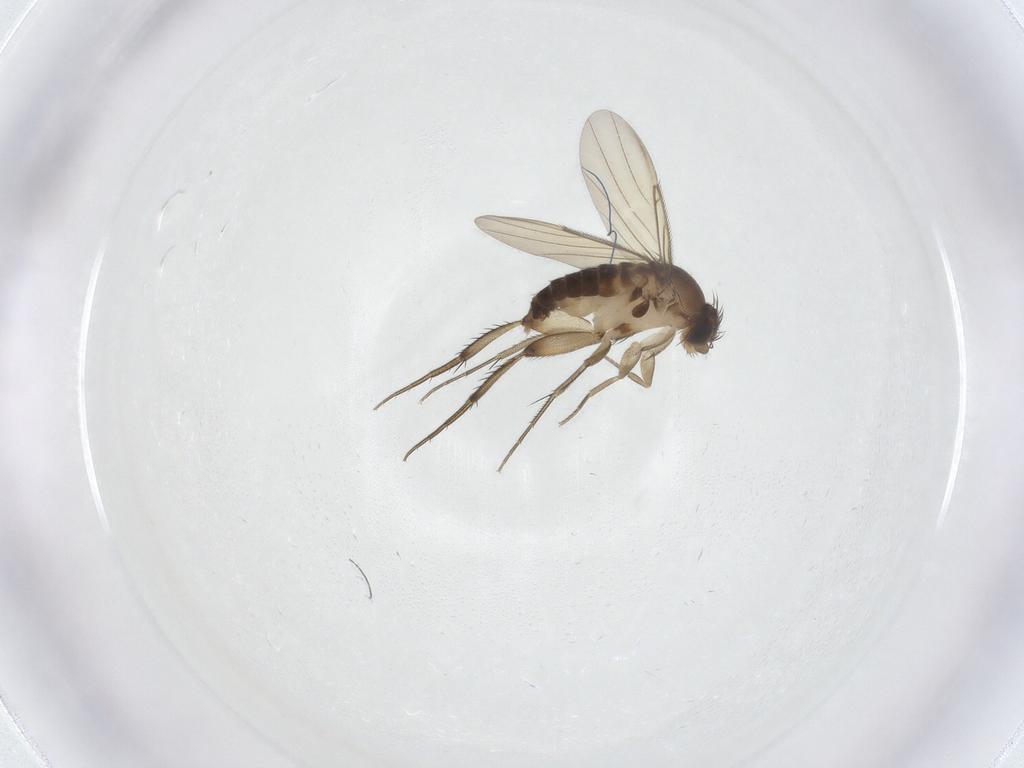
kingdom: Animalia
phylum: Arthropoda
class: Insecta
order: Diptera
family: Phoridae
